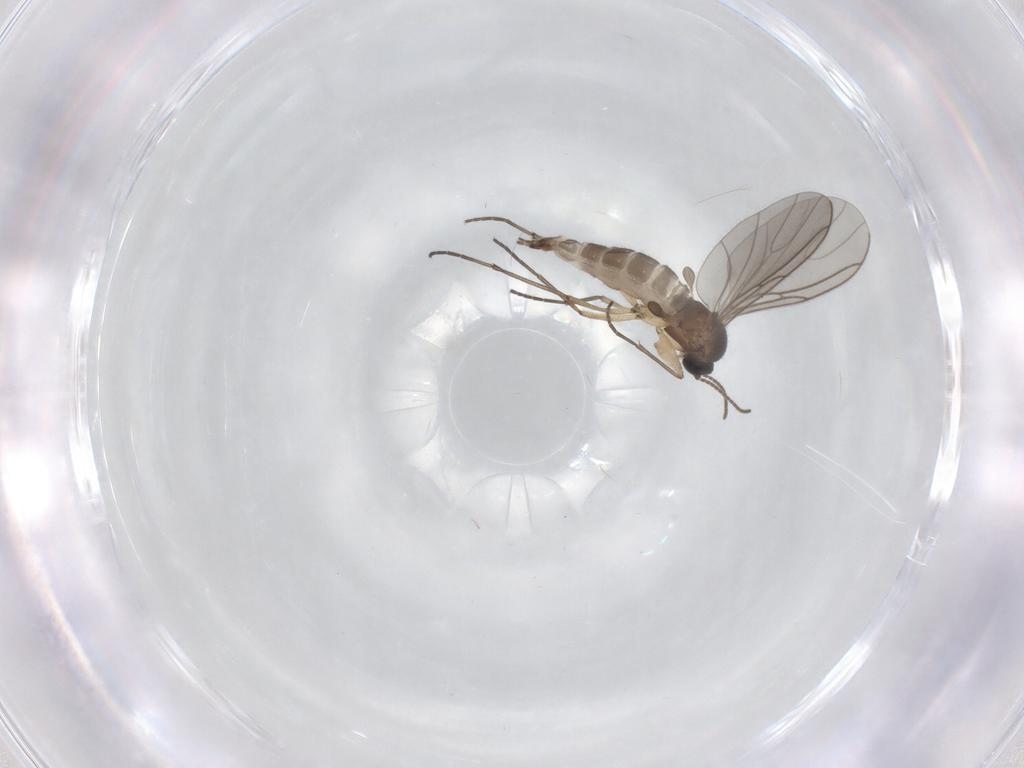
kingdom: Animalia
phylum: Arthropoda
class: Insecta
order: Diptera
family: Sciaridae
